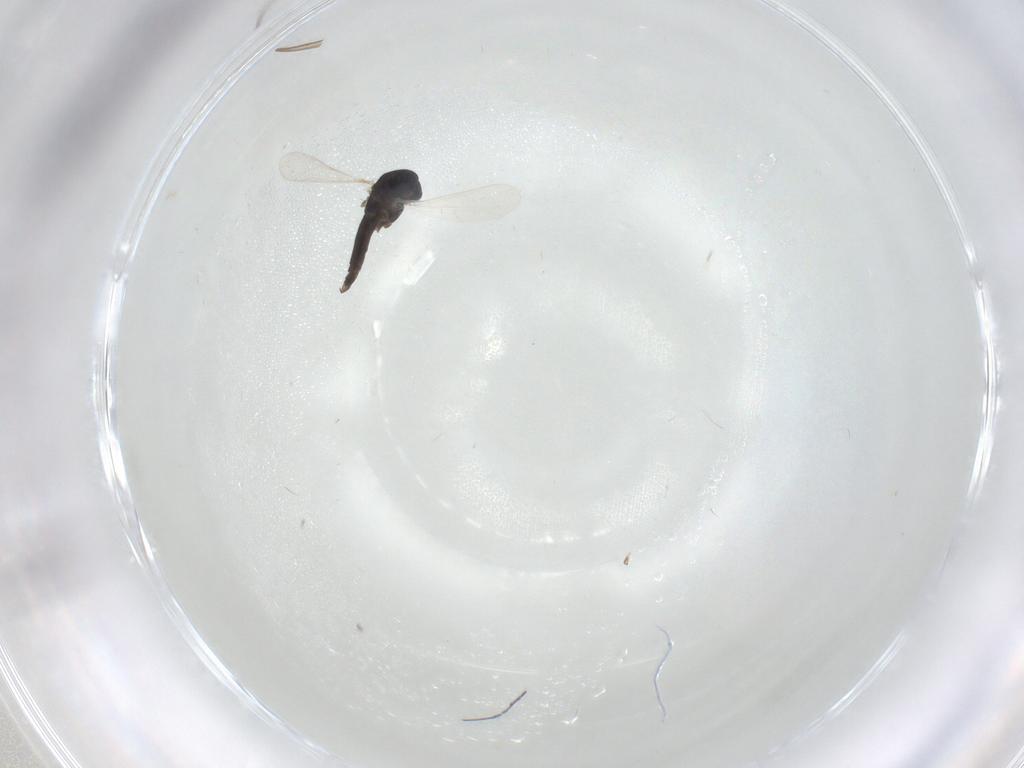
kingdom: Animalia
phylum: Arthropoda
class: Insecta
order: Diptera
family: Chironomidae
